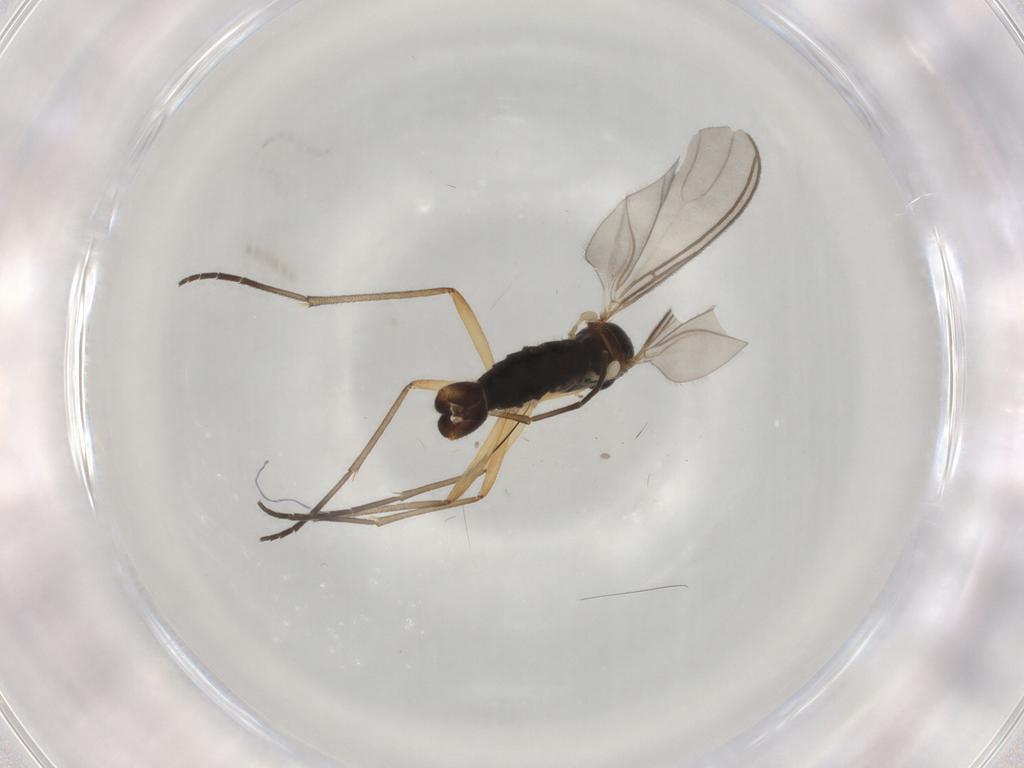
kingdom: Animalia
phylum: Arthropoda
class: Insecta
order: Diptera
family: Sciaridae
